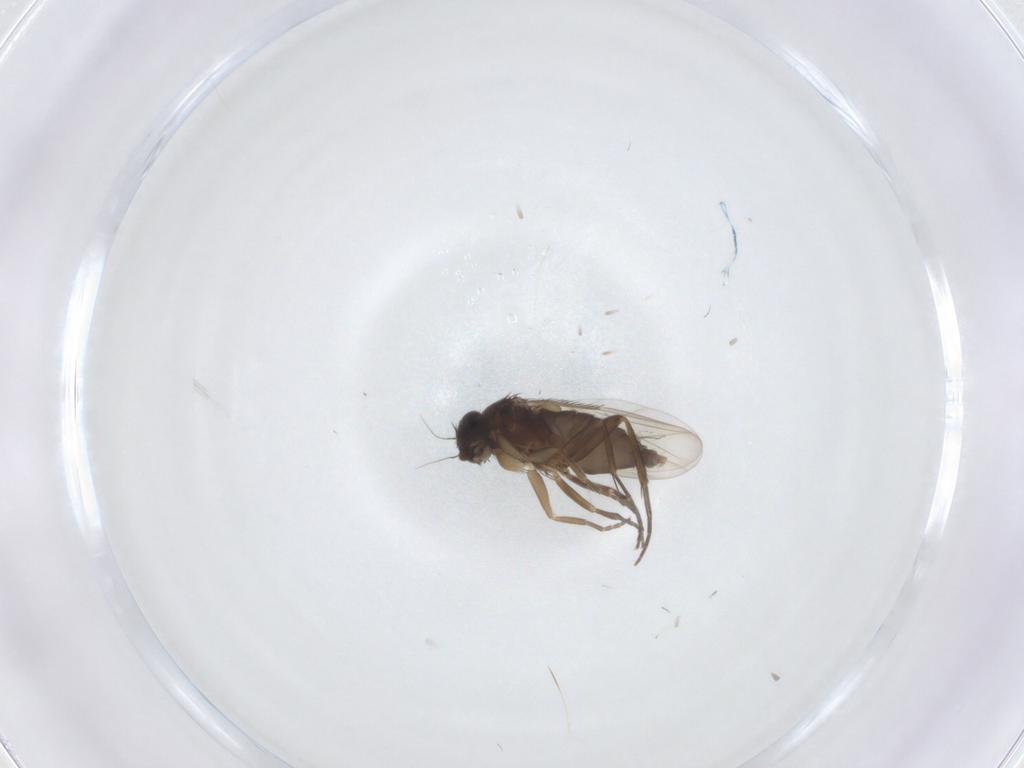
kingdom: Animalia
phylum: Arthropoda
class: Insecta
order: Diptera
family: Phoridae
